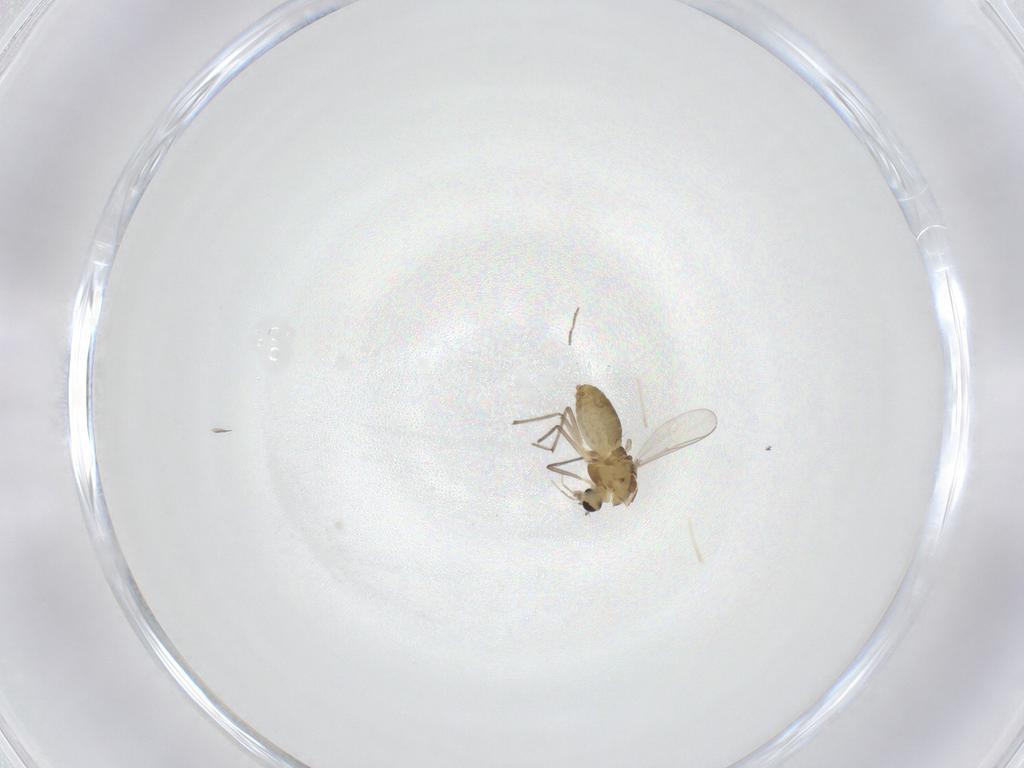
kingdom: Animalia
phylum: Arthropoda
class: Insecta
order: Diptera
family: Chironomidae
